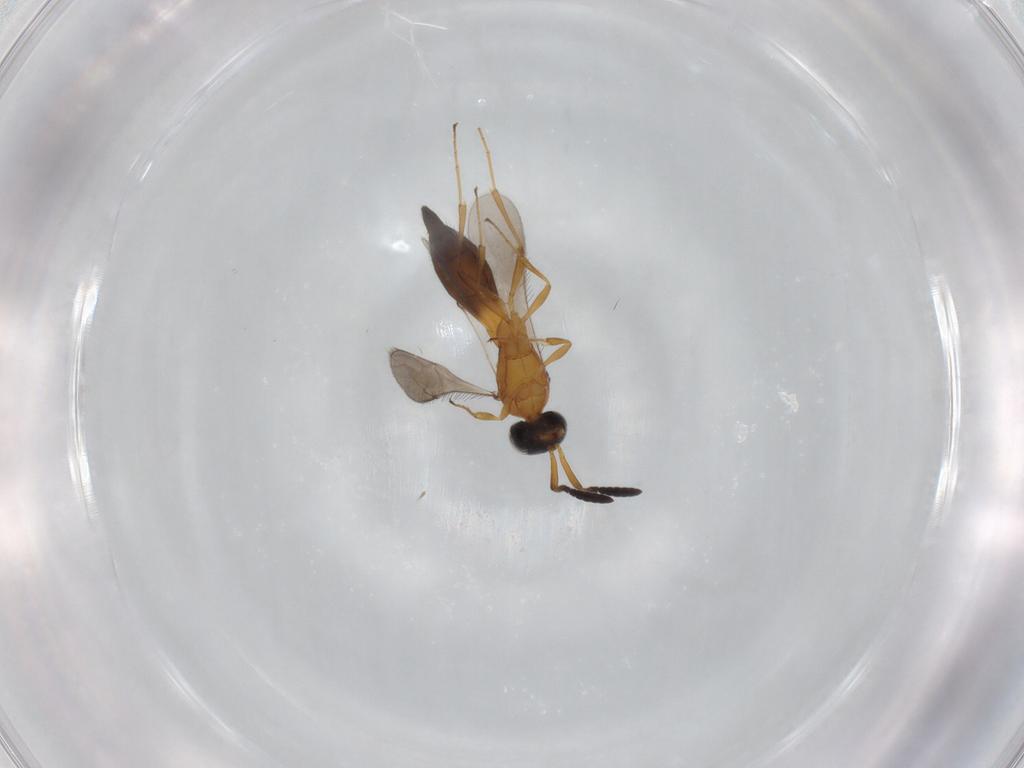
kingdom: Animalia
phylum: Arthropoda
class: Insecta
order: Hymenoptera
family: Scelionidae
